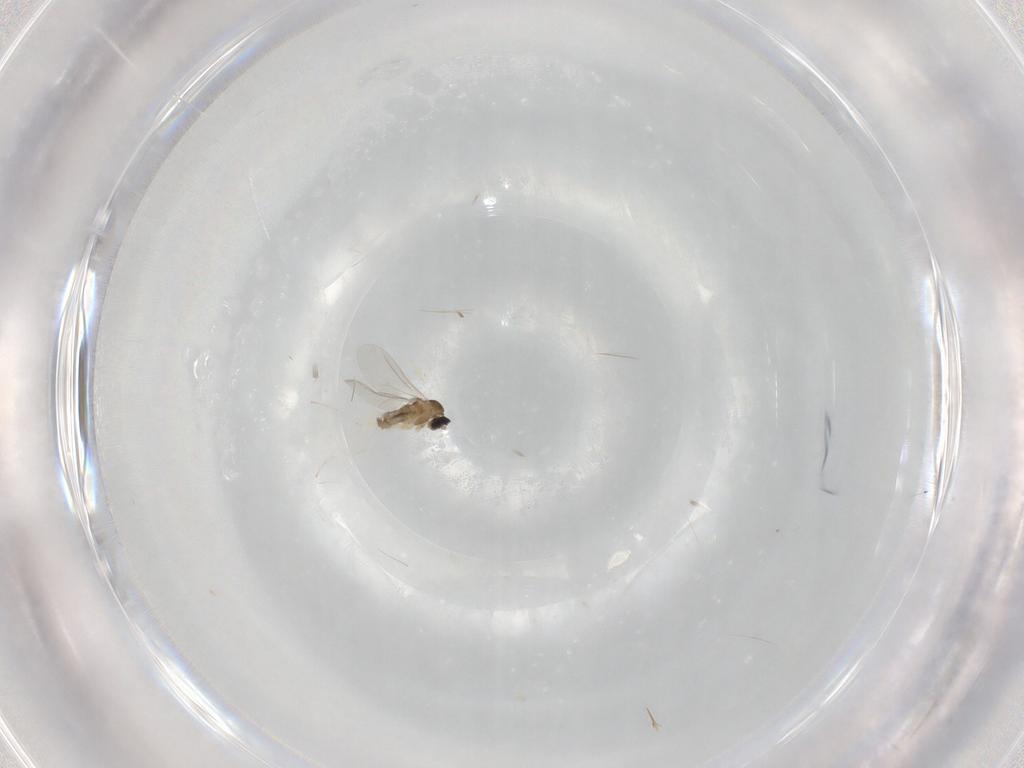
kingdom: Animalia
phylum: Arthropoda
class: Insecta
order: Diptera
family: Cecidomyiidae
